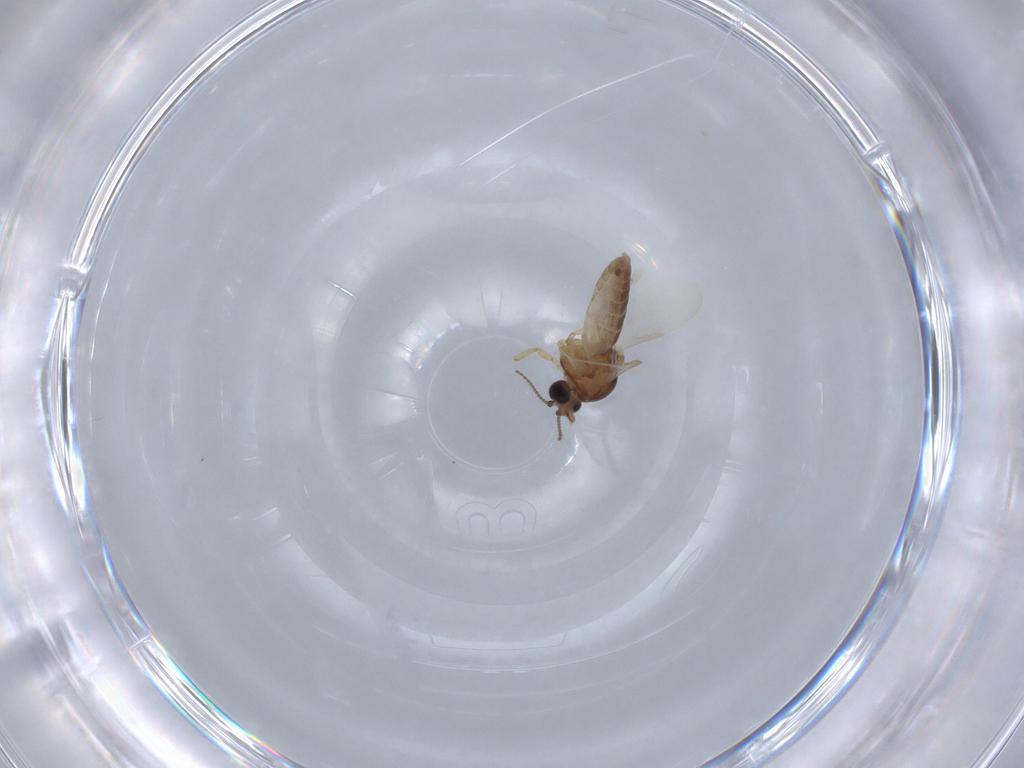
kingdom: Animalia
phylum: Arthropoda
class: Insecta
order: Diptera
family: Ceratopogonidae
